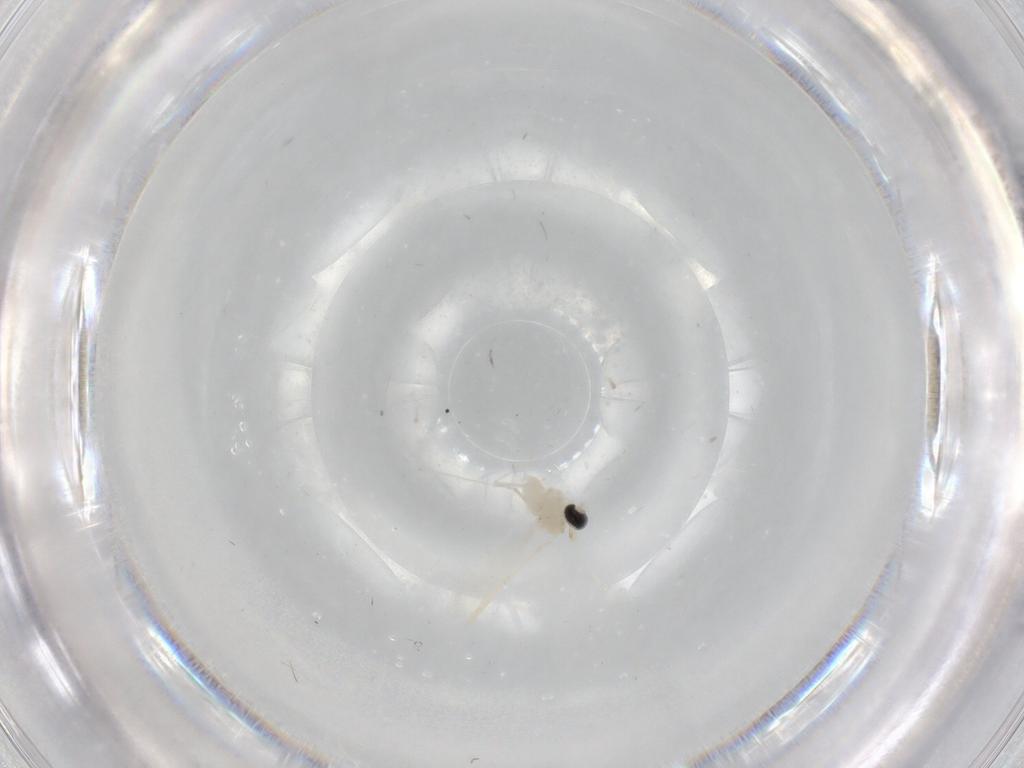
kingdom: Animalia
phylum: Arthropoda
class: Insecta
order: Diptera
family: Cecidomyiidae
